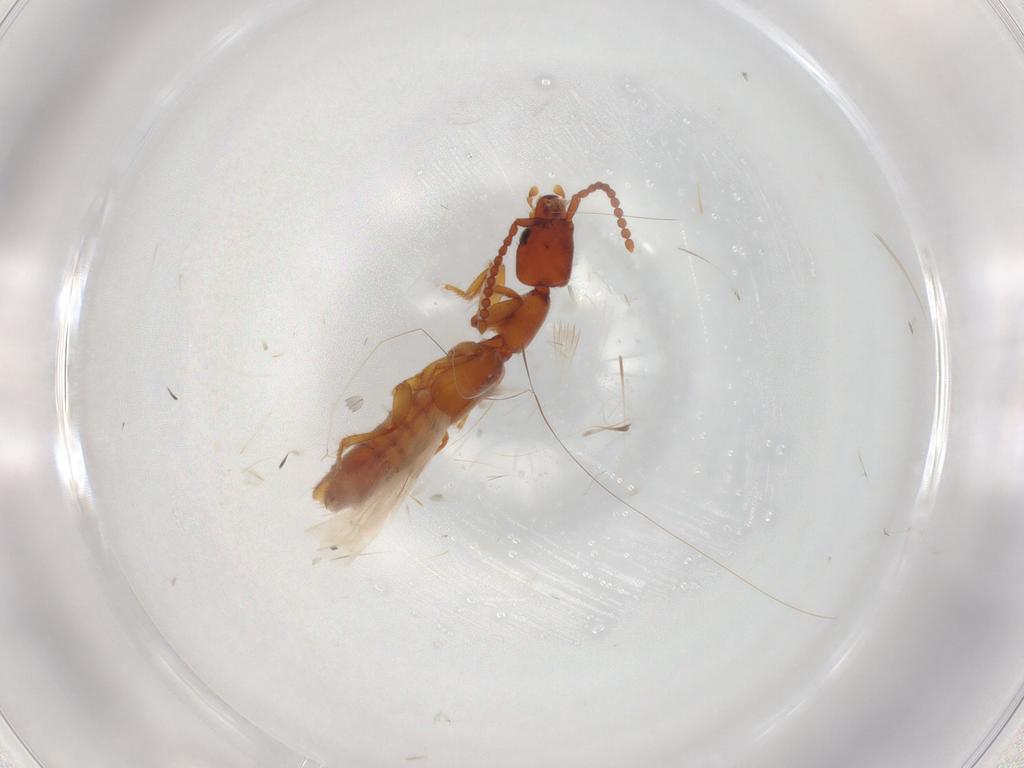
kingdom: Animalia
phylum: Arthropoda
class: Insecta
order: Coleoptera
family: Staphylinidae
